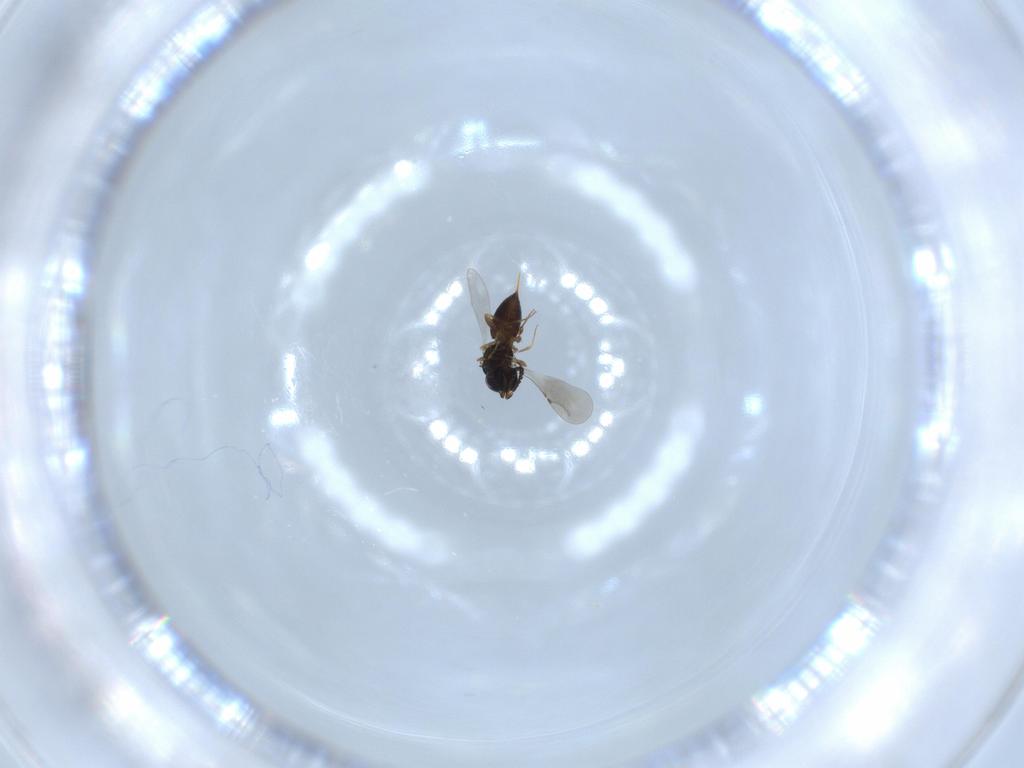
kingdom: Animalia
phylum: Arthropoda
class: Insecta
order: Hymenoptera
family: Ceraphronidae
